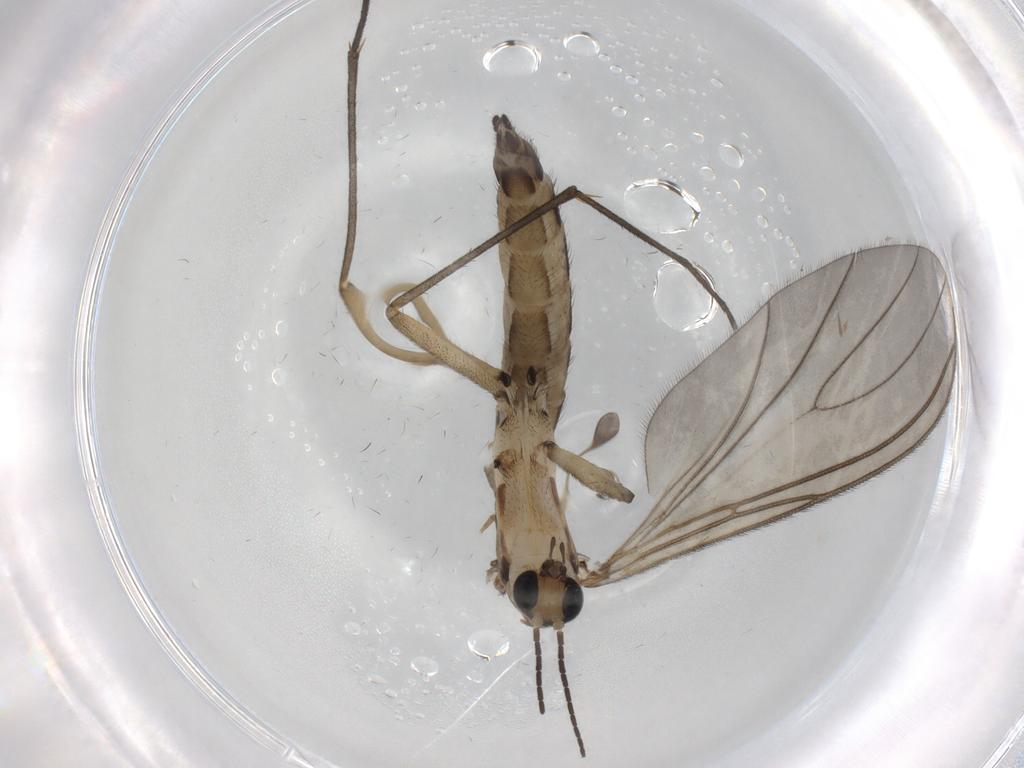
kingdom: Animalia
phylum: Arthropoda
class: Insecta
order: Diptera
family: Sciaridae
